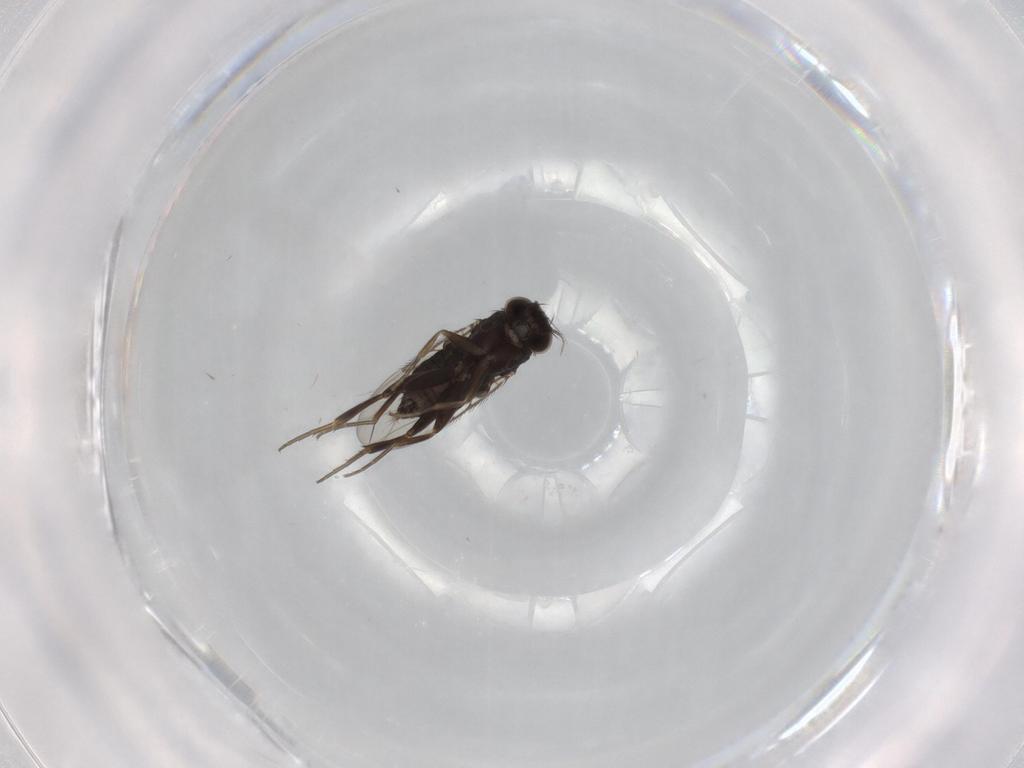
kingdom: Animalia
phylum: Arthropoda
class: Insecta
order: Diptera
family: Phoridae
